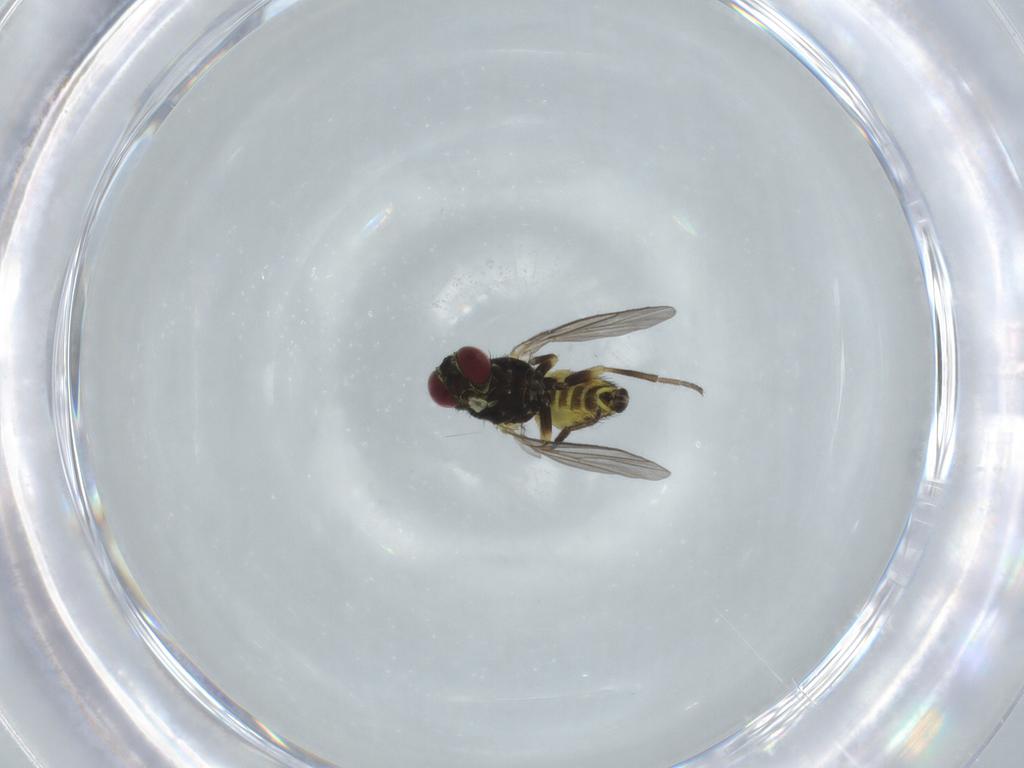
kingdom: Animalia
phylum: Arthropoda
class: Insecta
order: Diptera
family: Agromyzidae
